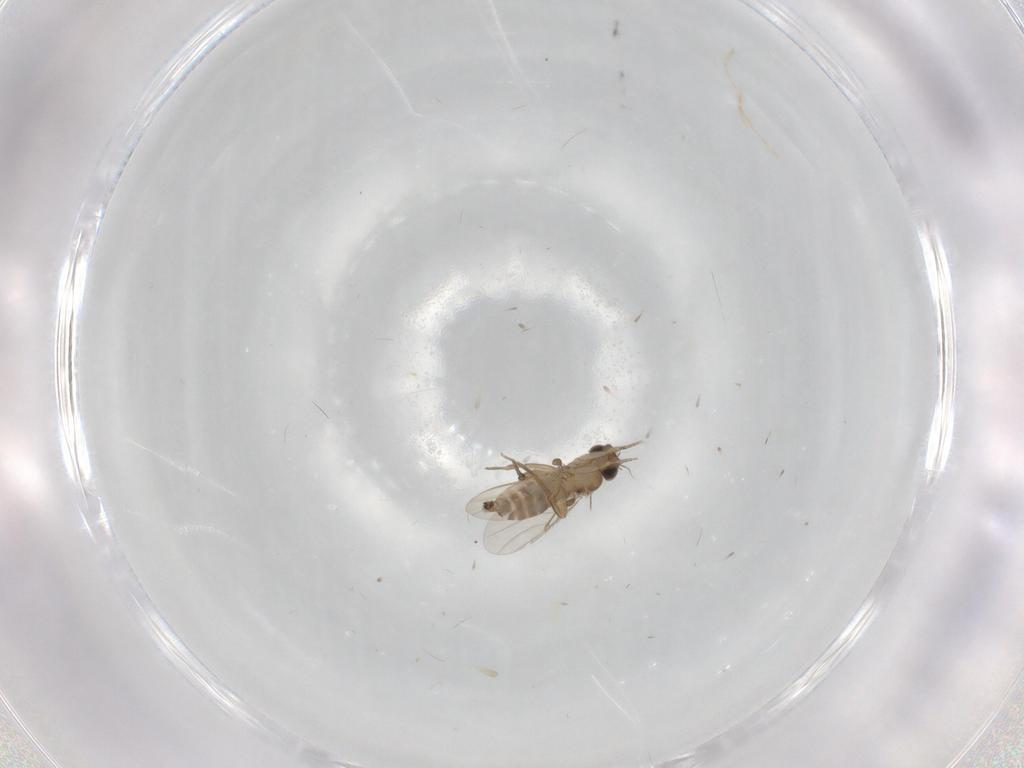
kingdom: Animalia
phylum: Arthropoda
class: Insecta
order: Diptera
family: Phoridae
